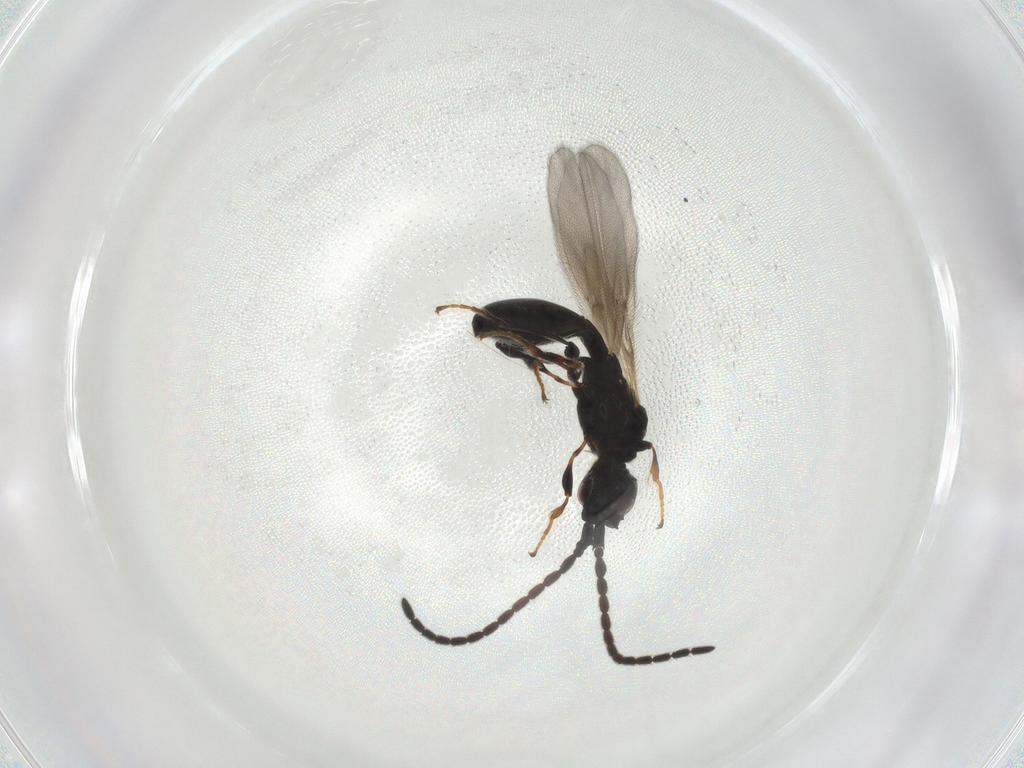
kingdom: Animalia
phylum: Arthropoda
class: Insecta
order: Hymenoptera
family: Diapriidae
